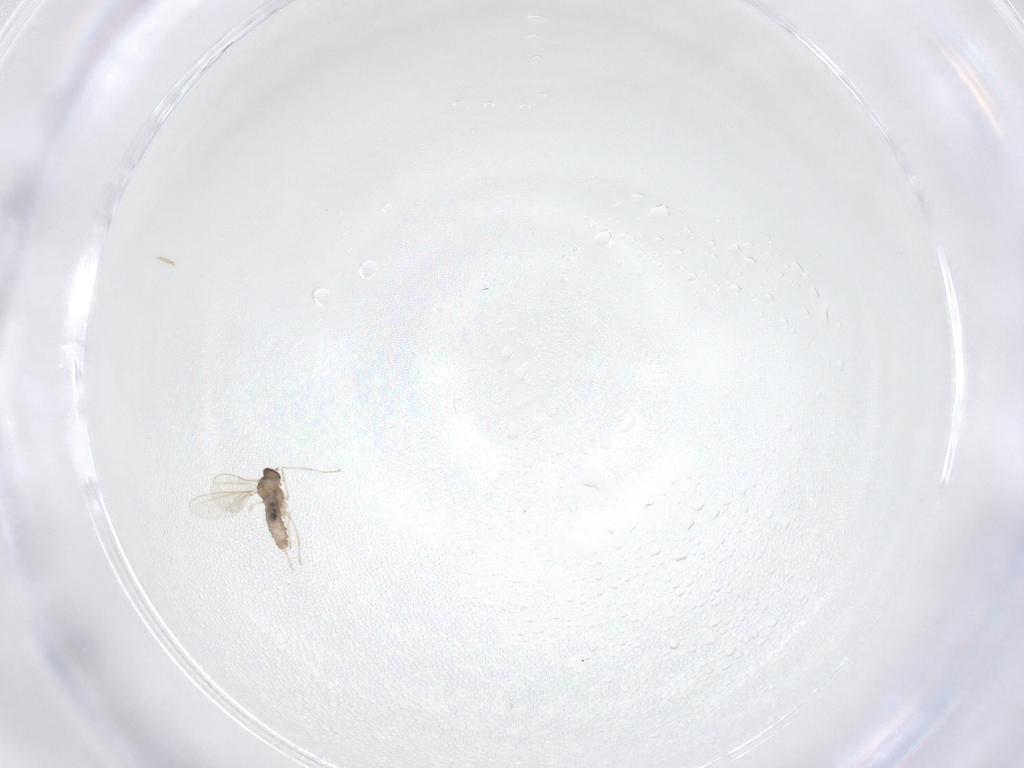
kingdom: Animalia
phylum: Arthropoda
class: Insecta
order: Diptera
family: Cecidomyiidae
